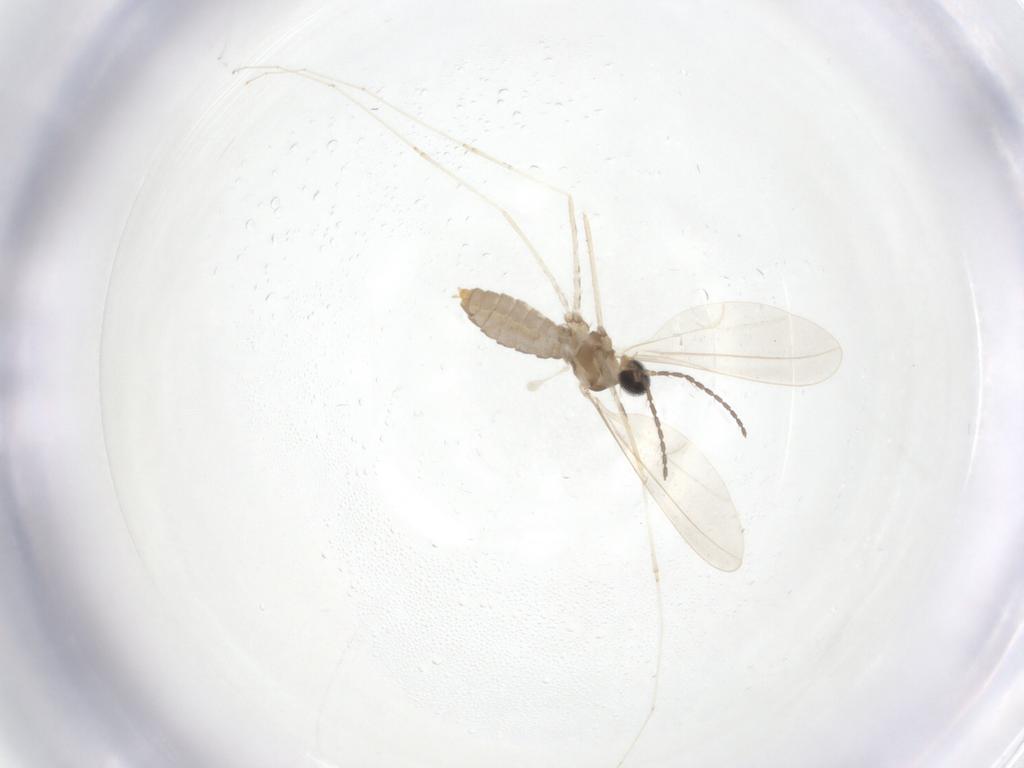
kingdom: Animalia
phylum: Arthropoda
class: Insecta
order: Diptera
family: Cecidomyiidae
